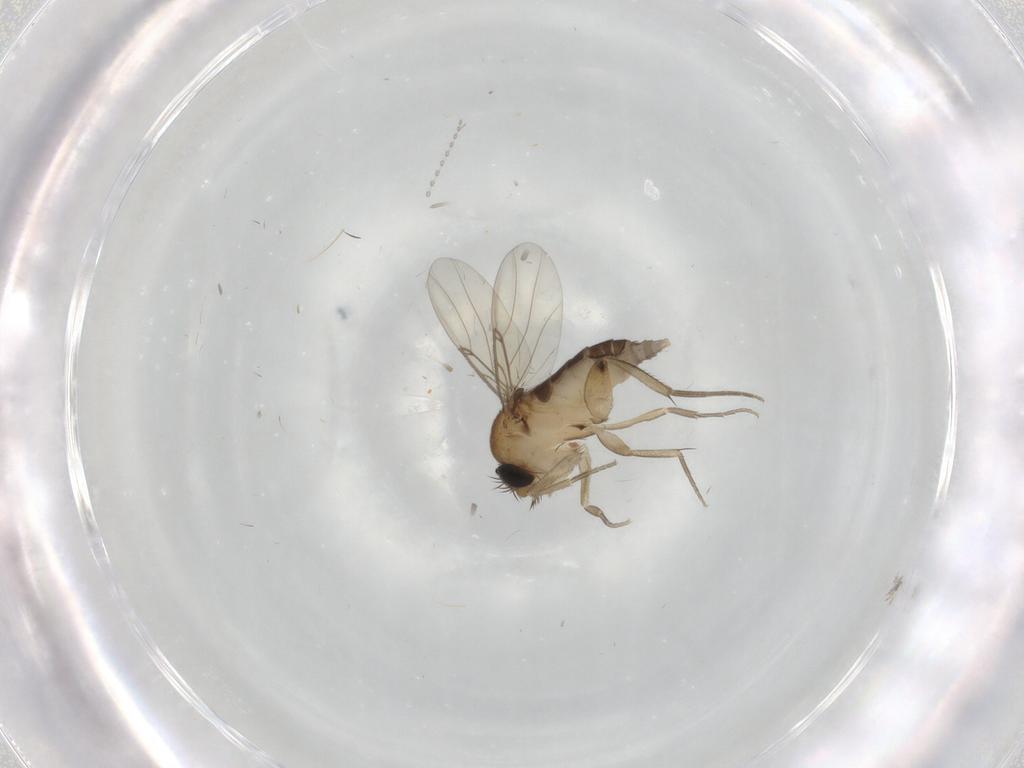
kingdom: Animalia
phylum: Arthropoda
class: Insecta
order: Diptera
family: Phoridae
